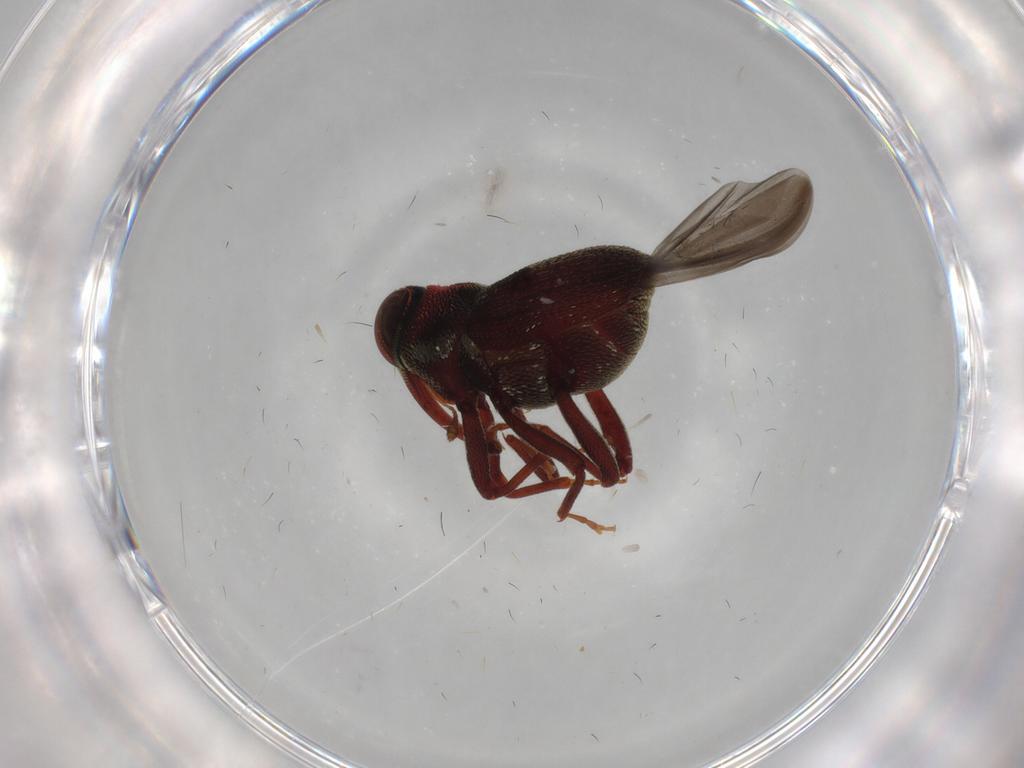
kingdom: Animalia
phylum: Arthropoda
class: Insecta
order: Coleoptera
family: Curculionidae
